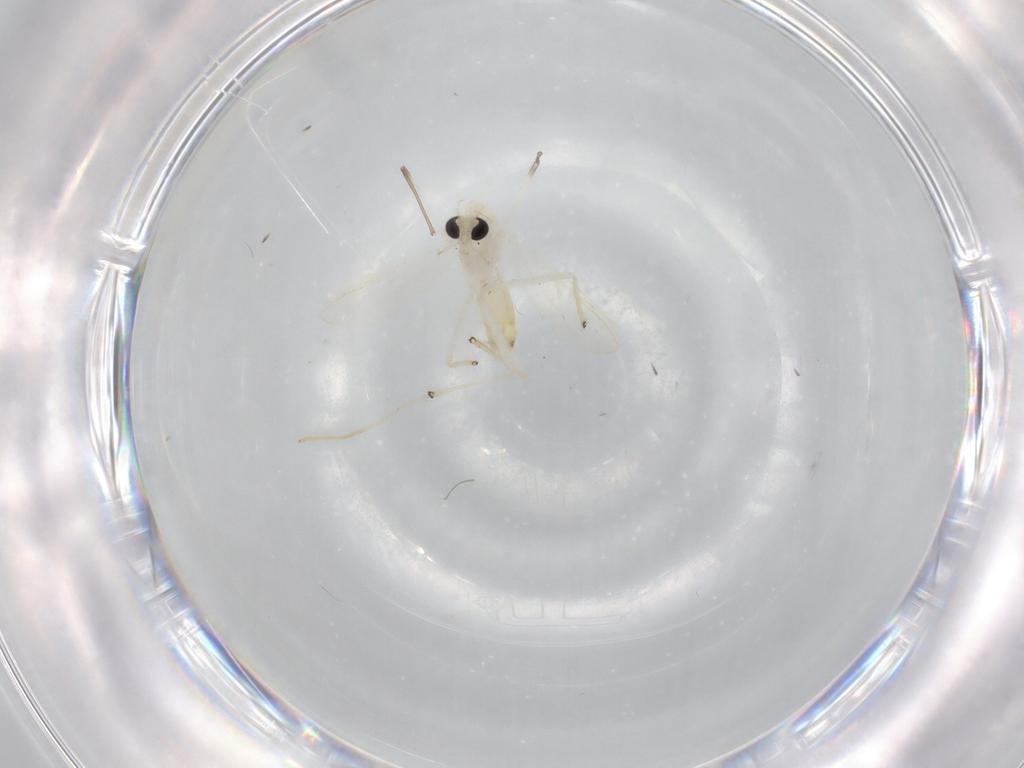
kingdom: Animalia
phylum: Arthropoda
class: Insecta
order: Diptera
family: Chironomidae
